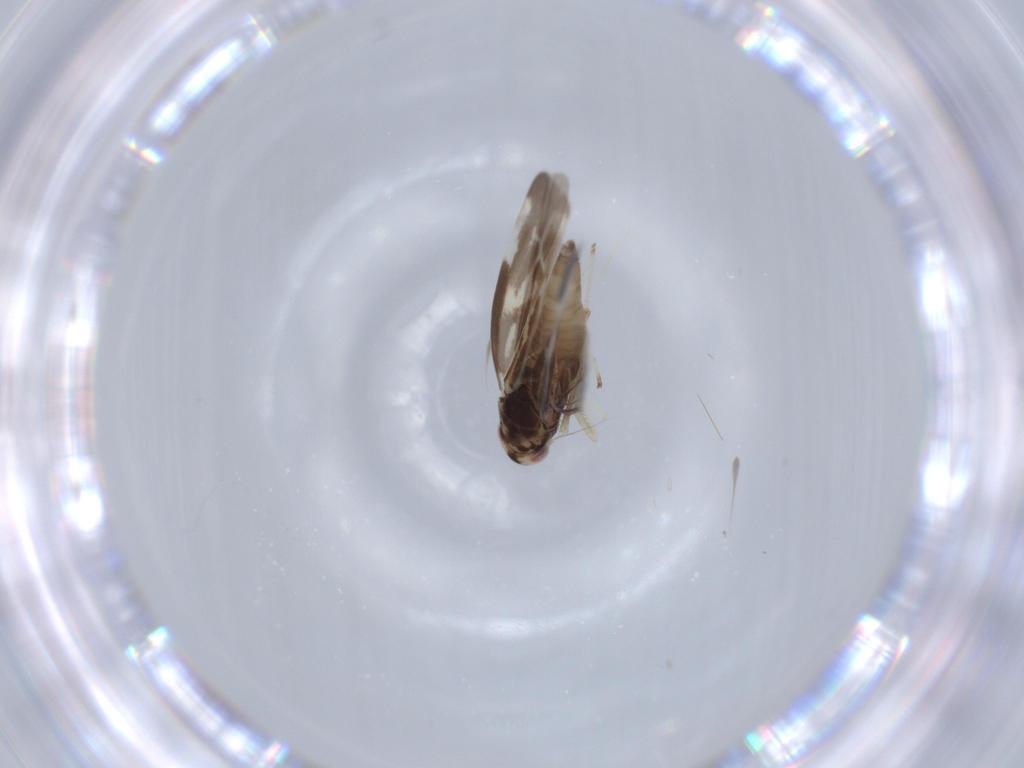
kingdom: Animalia
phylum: Arthropoda
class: Insecta
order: Hemiptera
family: Cicadellidae
